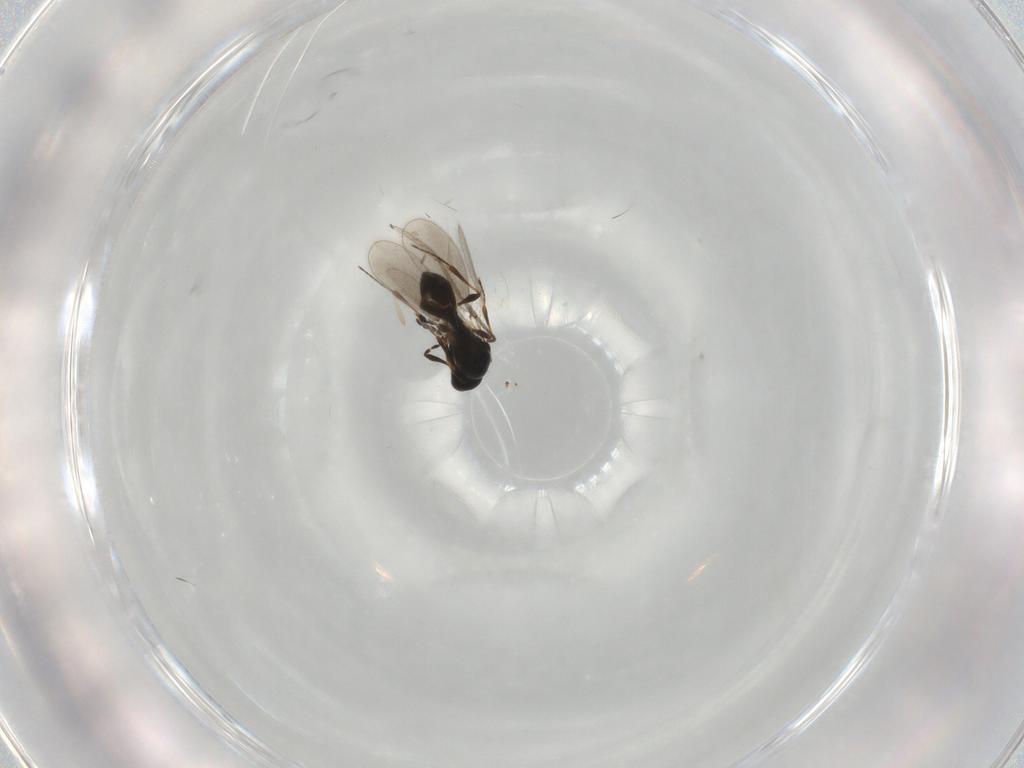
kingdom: Animalia
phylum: Arthropoda
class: Insecta
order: Hymenoptera
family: Platygastridae
